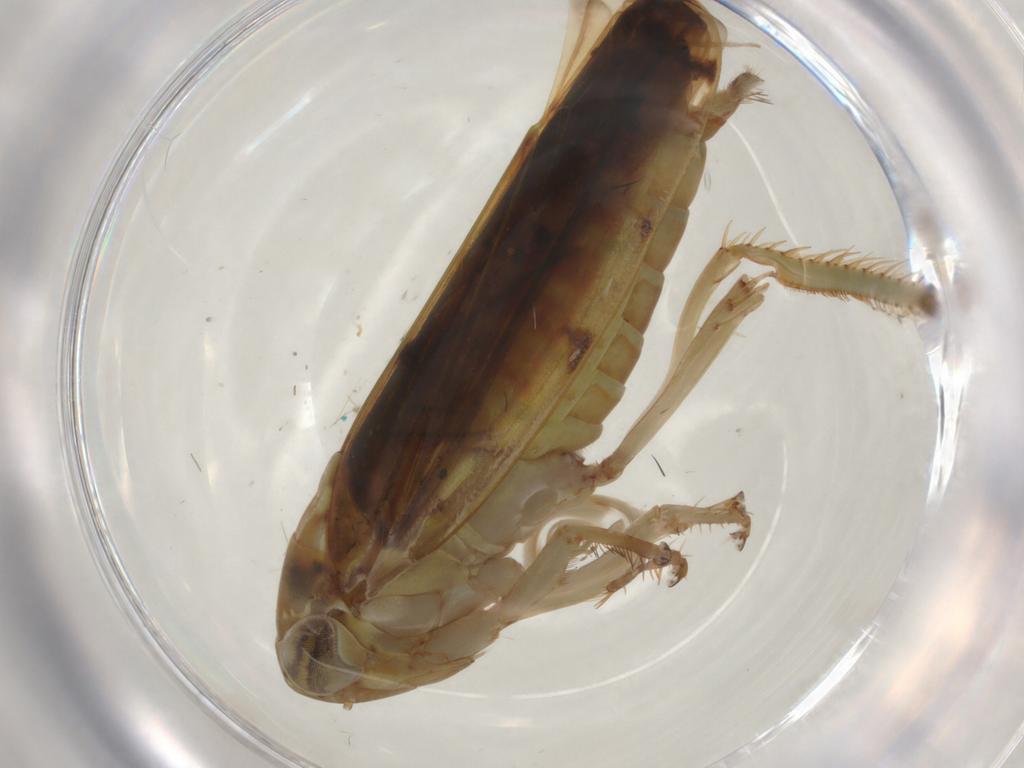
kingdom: Animalia
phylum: Arthropoda
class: Insecta
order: Hemiptera
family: Cicadellidae
